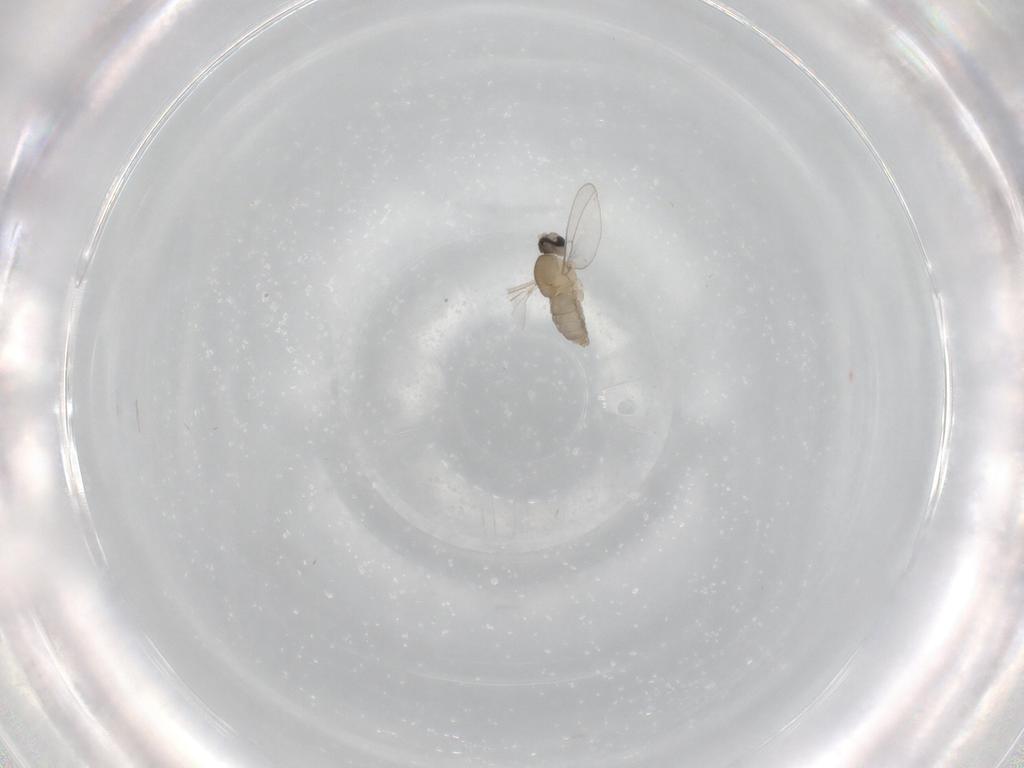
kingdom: Animalia
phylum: Arthropoda
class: Insecta
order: Diptera
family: Cecidomyiidae
